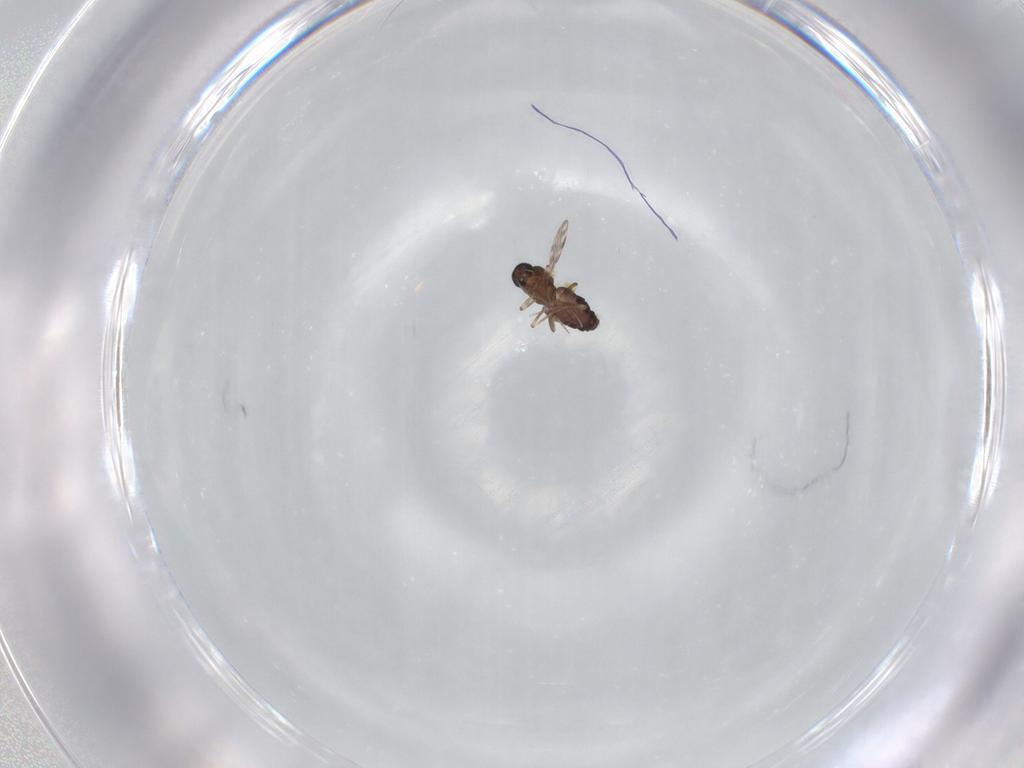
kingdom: Animalia
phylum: Arthropoda
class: Insecta
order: Diptera
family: Ceratopogonidae
